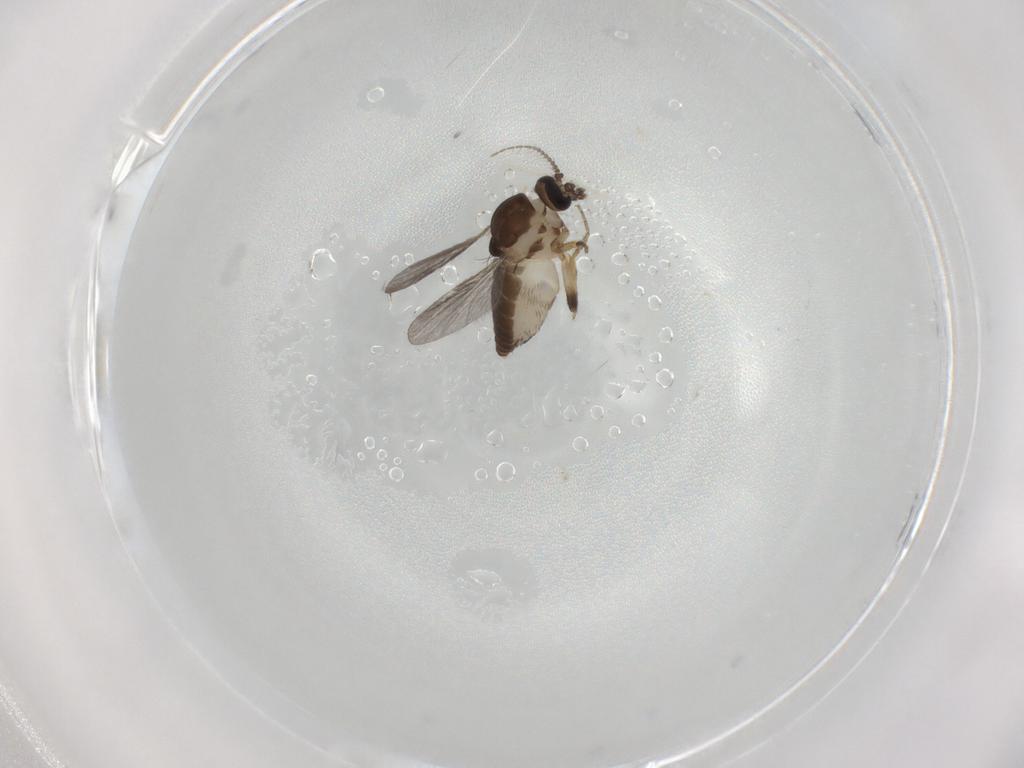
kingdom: Animalia
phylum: Arthropoda
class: Insecta
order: Diptera
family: Ceratopogonidae
